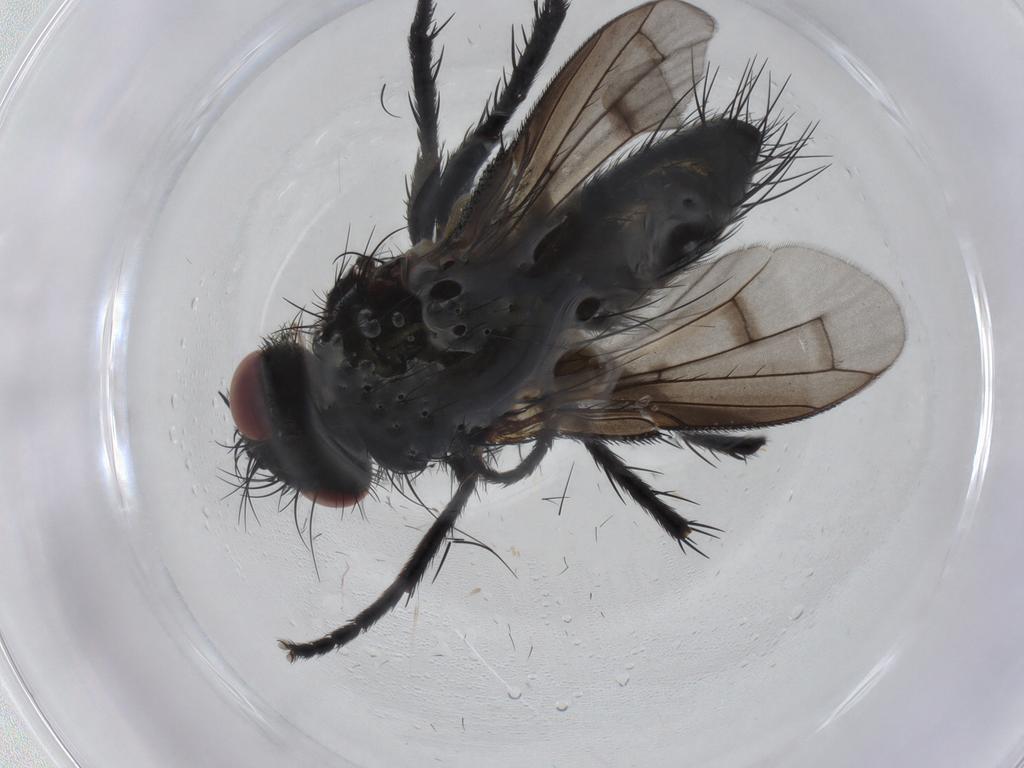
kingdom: Animalia
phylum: Arthropoda
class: Insecta
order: Diptera
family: Tachinidae
